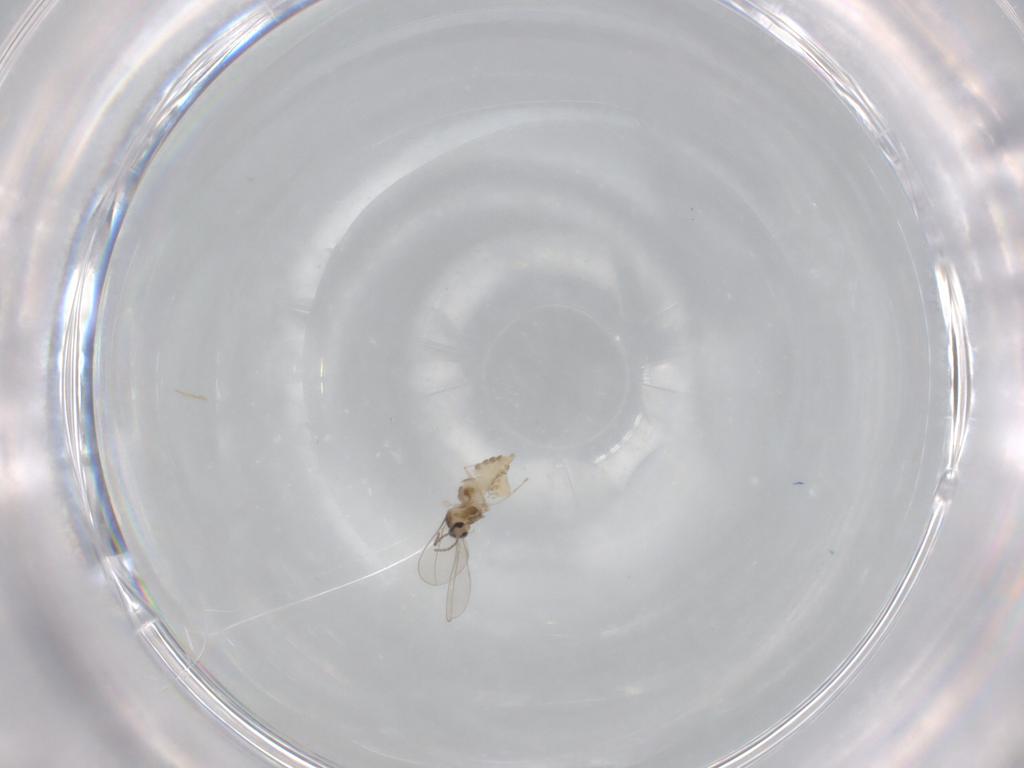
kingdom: Animalia
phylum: Arthropoda
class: Insecta
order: Diptera
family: Cecidomyiidae
